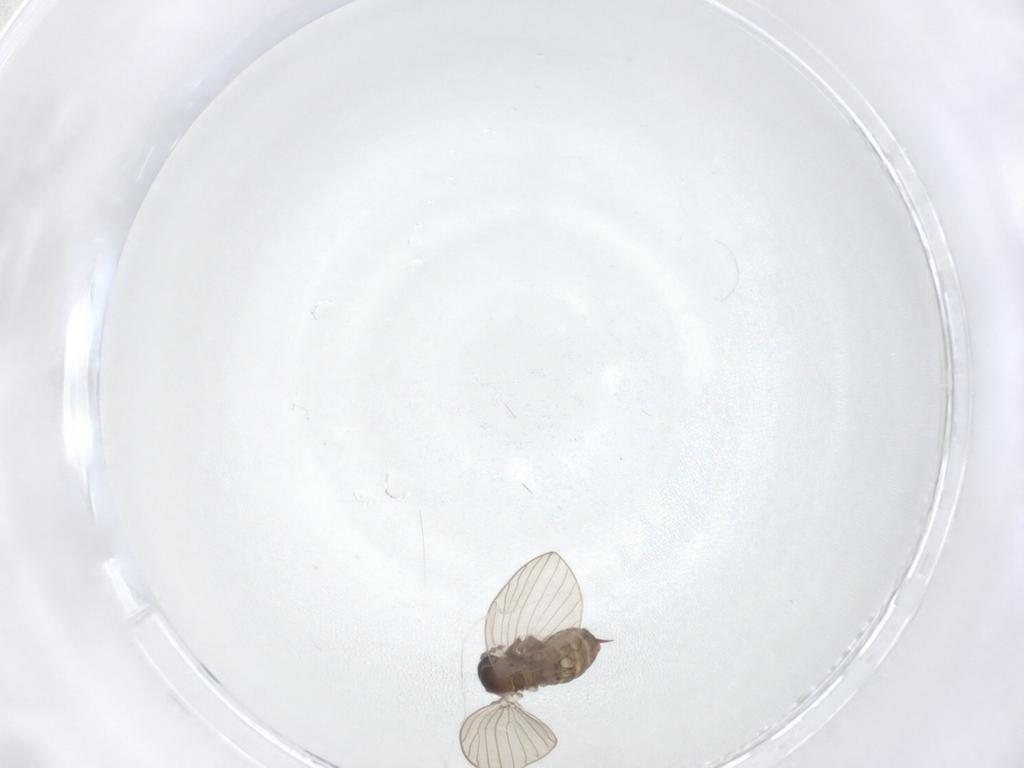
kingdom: Animalia
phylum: Arthropoda
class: Insecta
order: Diptera
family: Psychodidae
